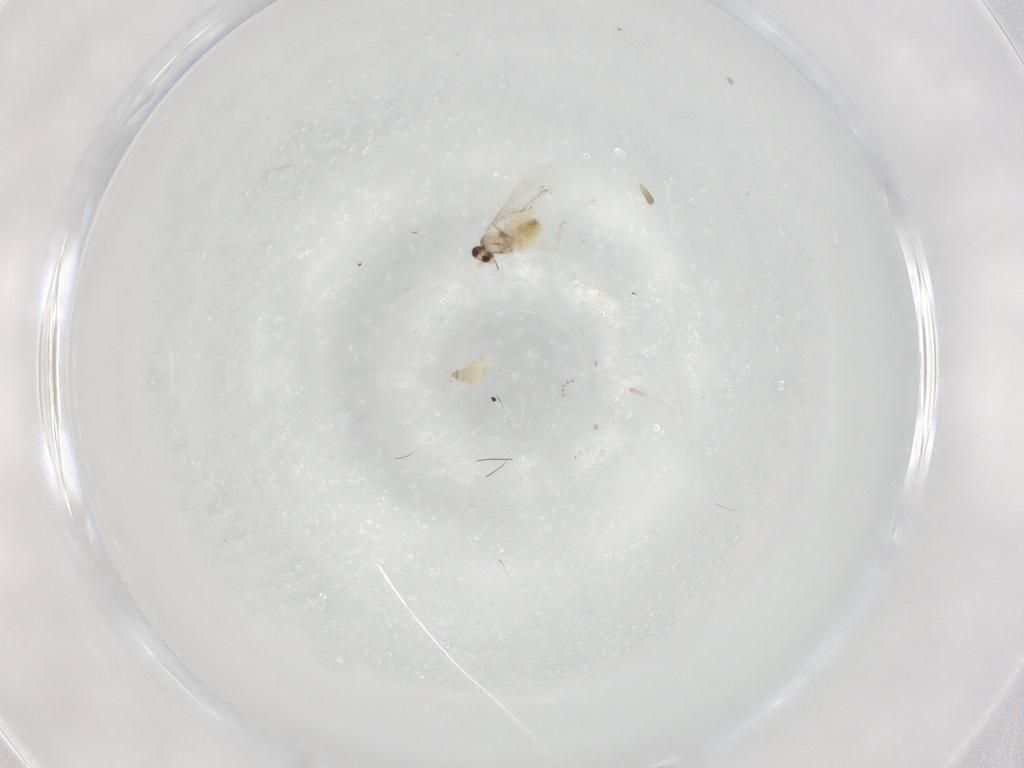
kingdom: Animalia
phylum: Arthropoda
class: Insecta
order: Diptera
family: Cecidomyiidae
